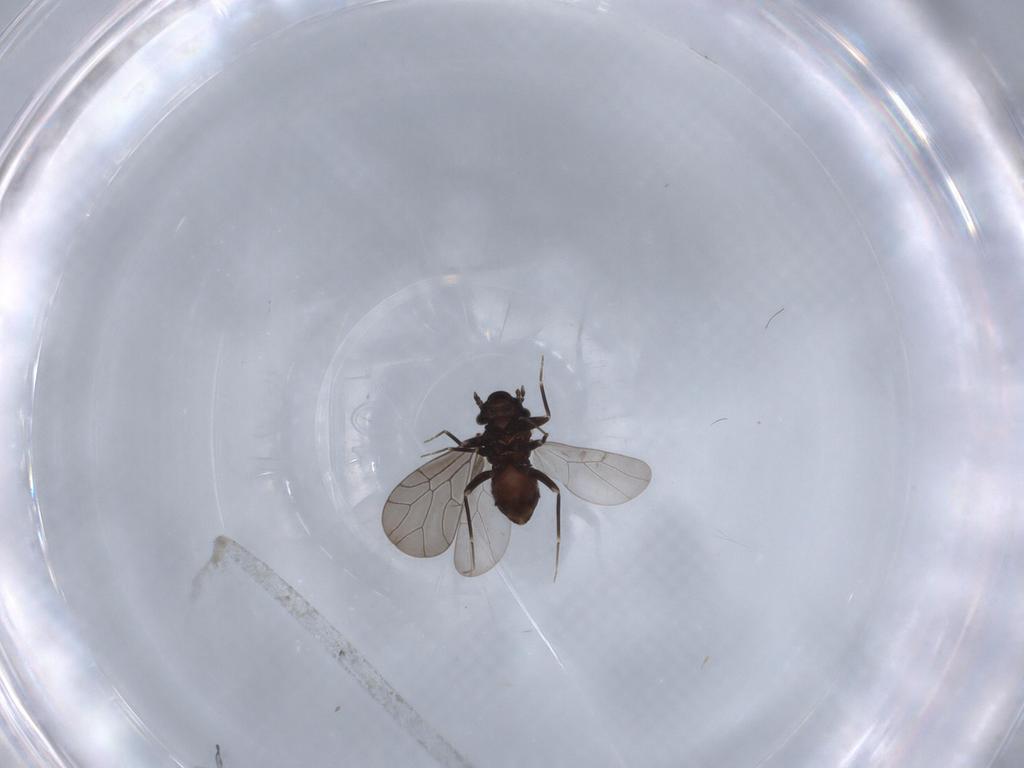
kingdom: Animalia
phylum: Arthropoda
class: Insecta
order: Psocodea
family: Lepidopsocidae
